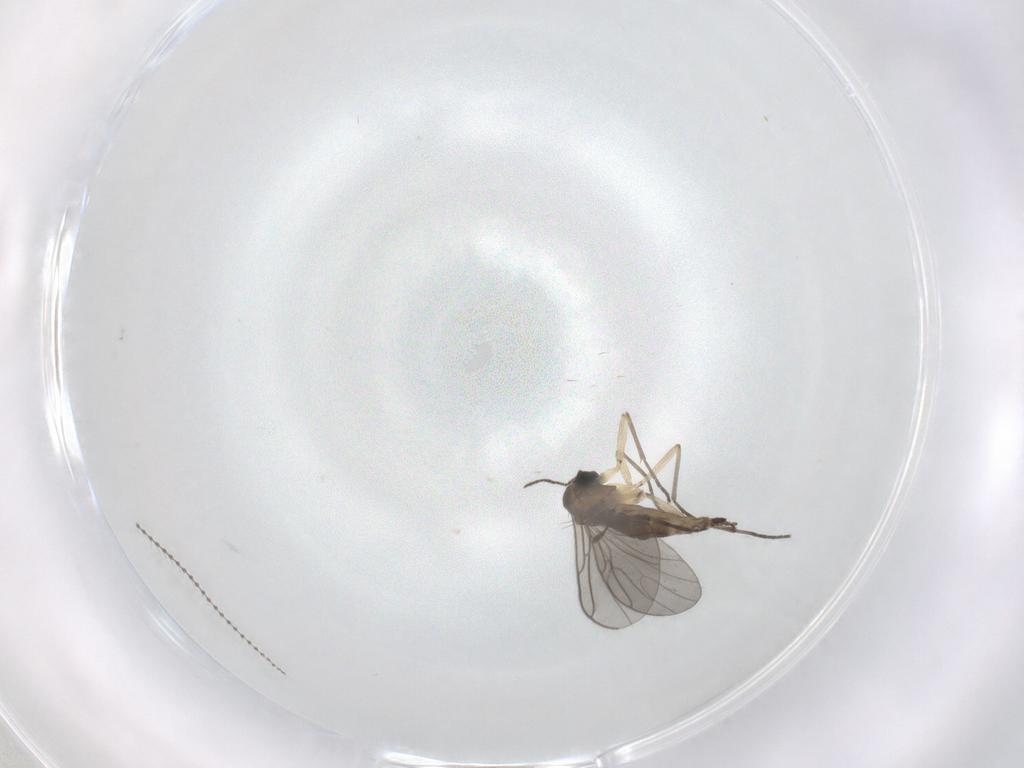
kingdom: Animalia
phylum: Arthropoda
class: Insecta
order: Diptera
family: Sciaridae
